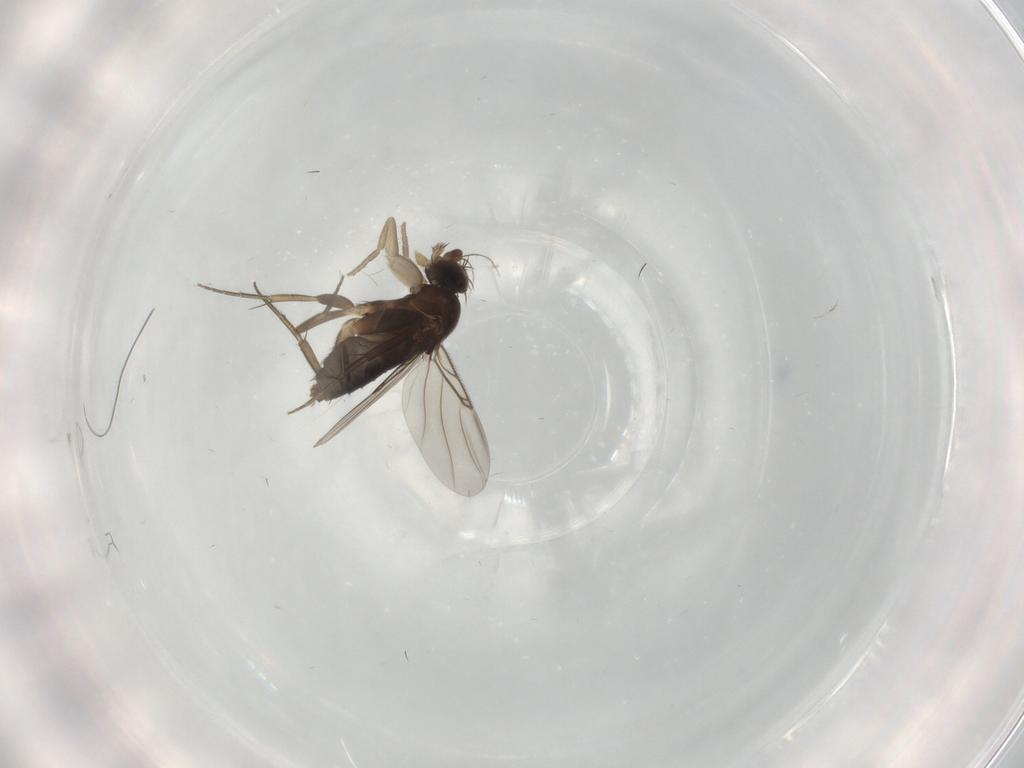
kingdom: Animalia
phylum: Arthropoda
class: Insecta
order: Diptera
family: Phoridae
